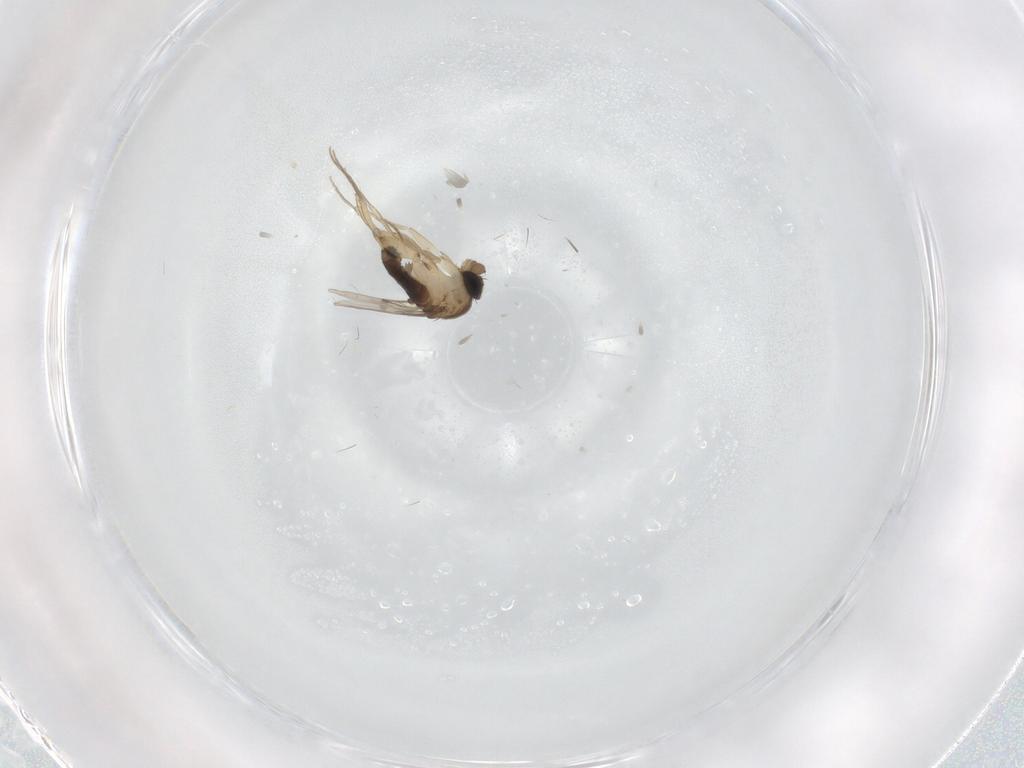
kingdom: Animalia
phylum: Arthropoda
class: Insecta
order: Diptera
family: Phoridae
